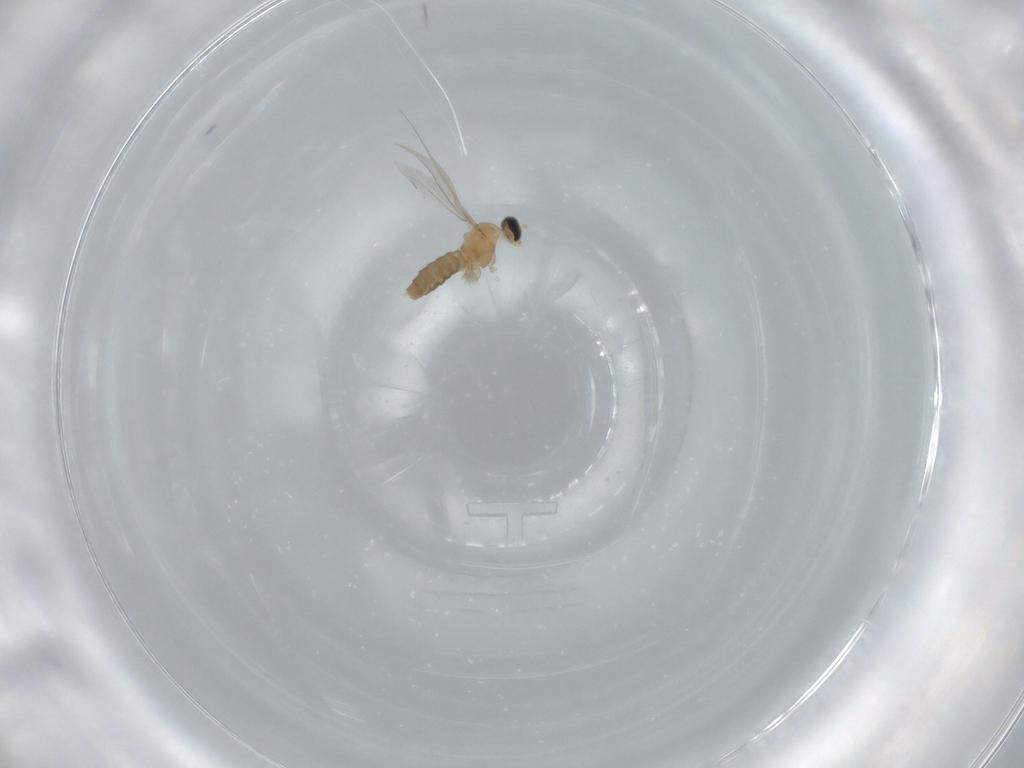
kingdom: Animalia
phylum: Arthropoda
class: Insecta
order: Diptera
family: Cecidomyiidae
